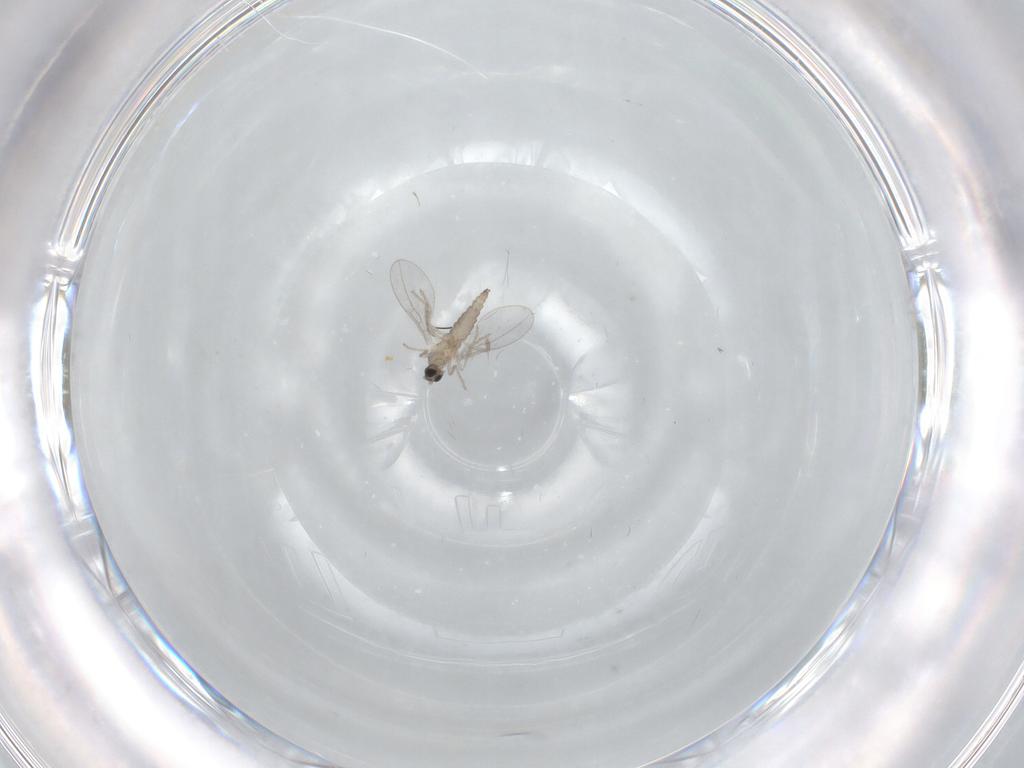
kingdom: Animalia
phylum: Arthropoda
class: Insecta
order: Diptera
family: Cecidomyiidae
